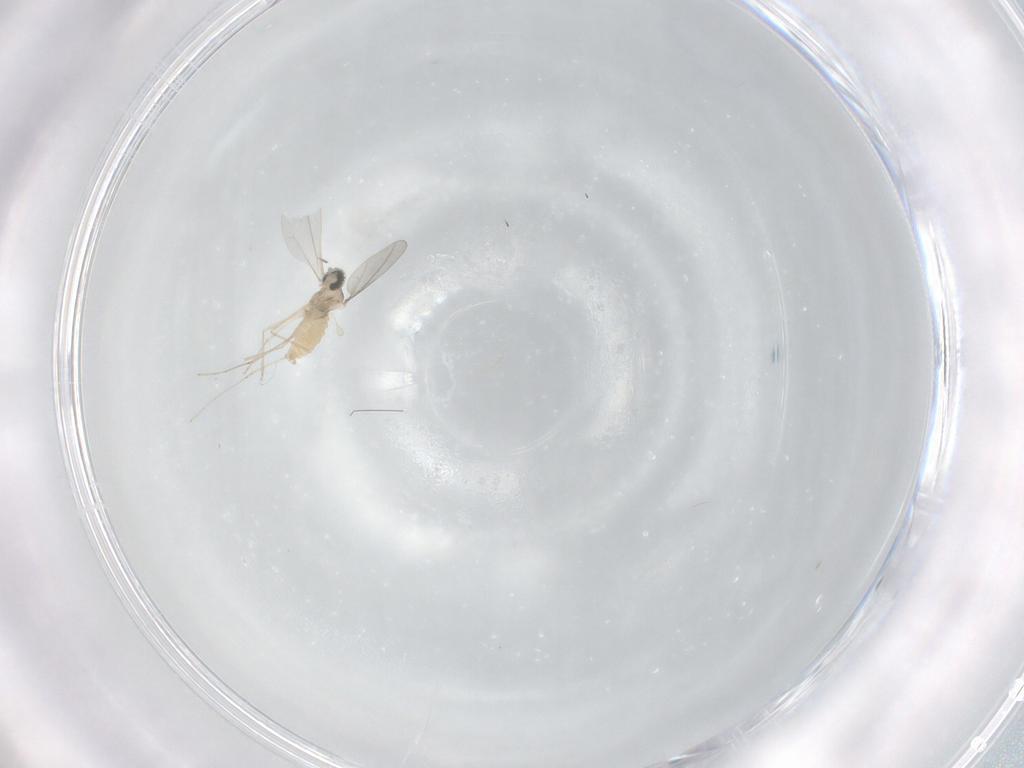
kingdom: Animalia
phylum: Arthropoda
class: Insecta
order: Diptera
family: Cecidomyiidae
